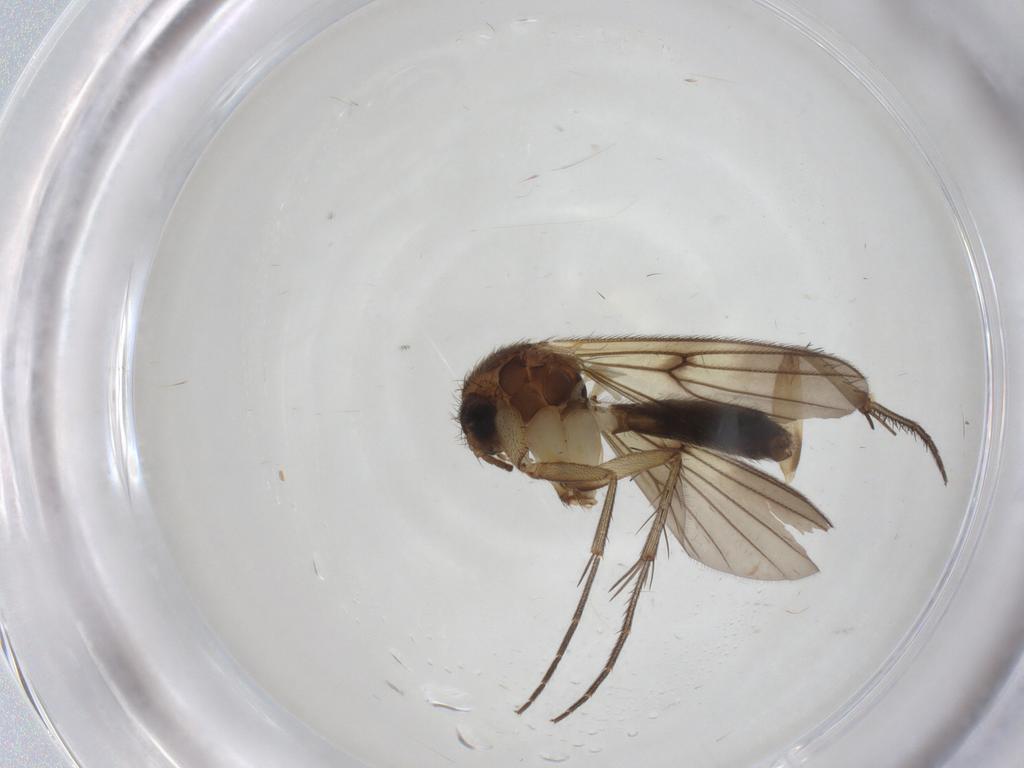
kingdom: Animalia
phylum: Arthropoda
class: Insecta
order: Diptera
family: Mycetophilidae
